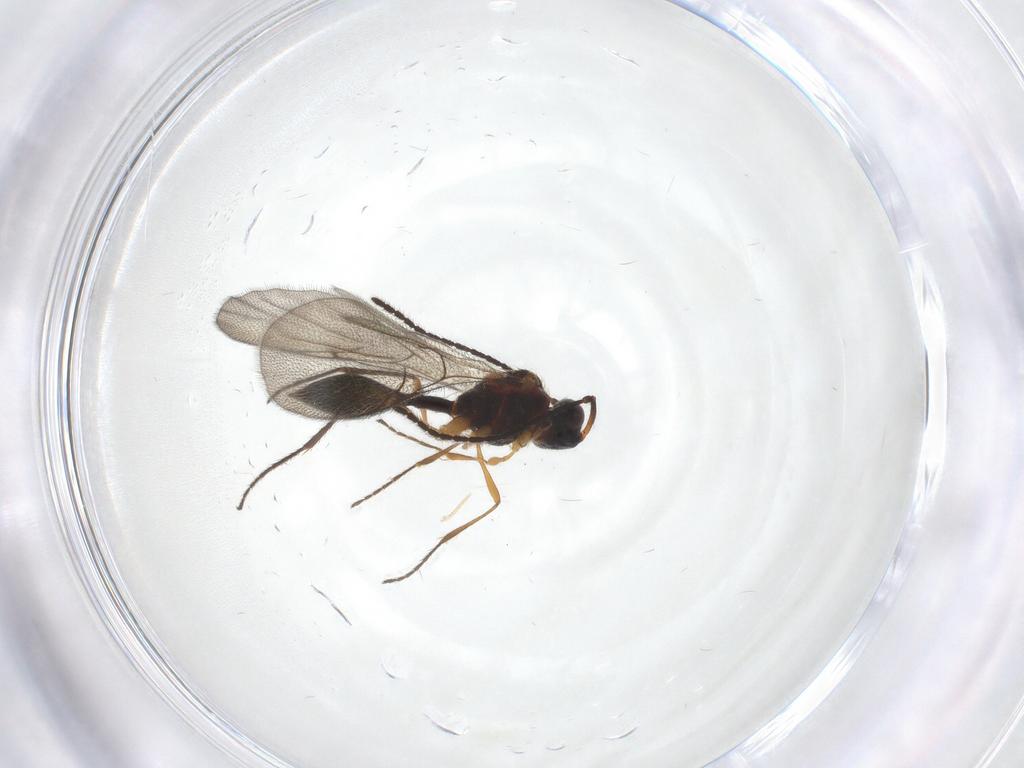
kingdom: Animalia
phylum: Arthropoda
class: Insecta
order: Hymenoptera
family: Diapriidae
